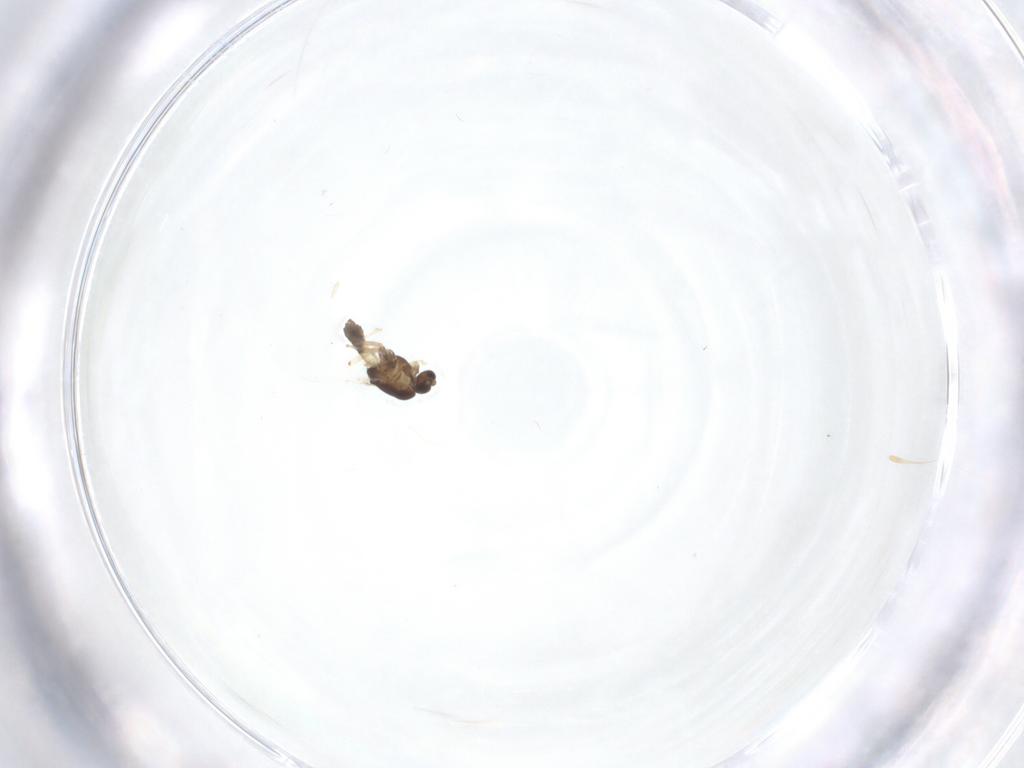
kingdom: Animalia
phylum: Arthropoda
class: Insecta
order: Diptera
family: Chironomidae
